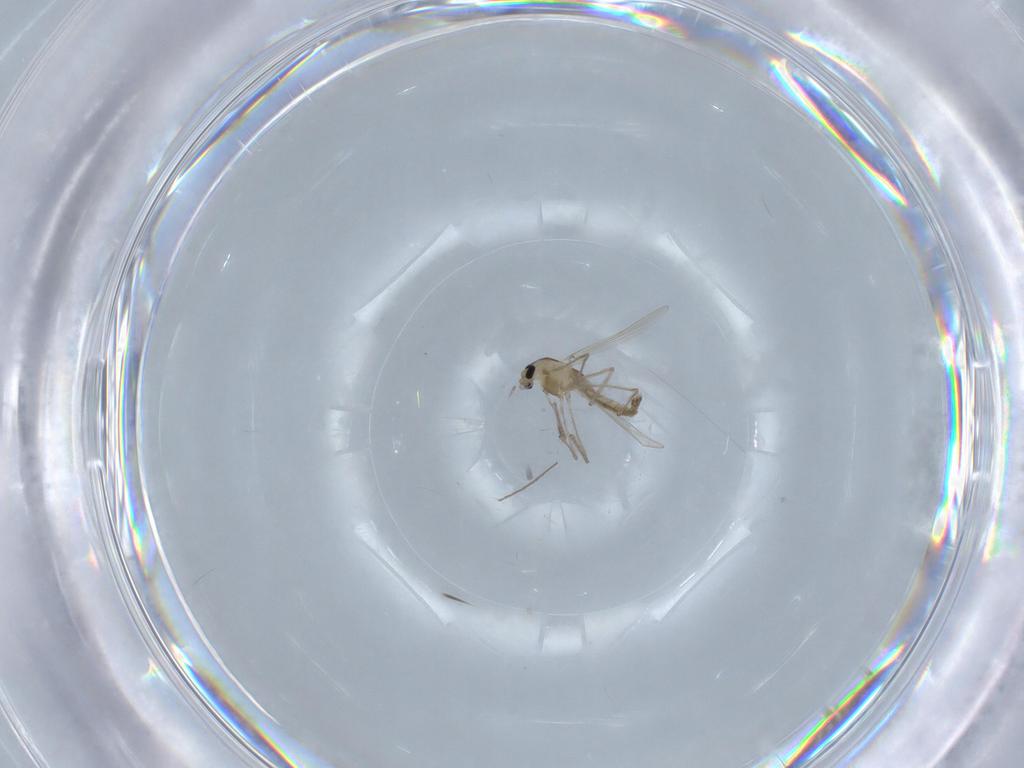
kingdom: Animalia
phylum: Arthropoda
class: Insecta
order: Diptera
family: Chironomidae
